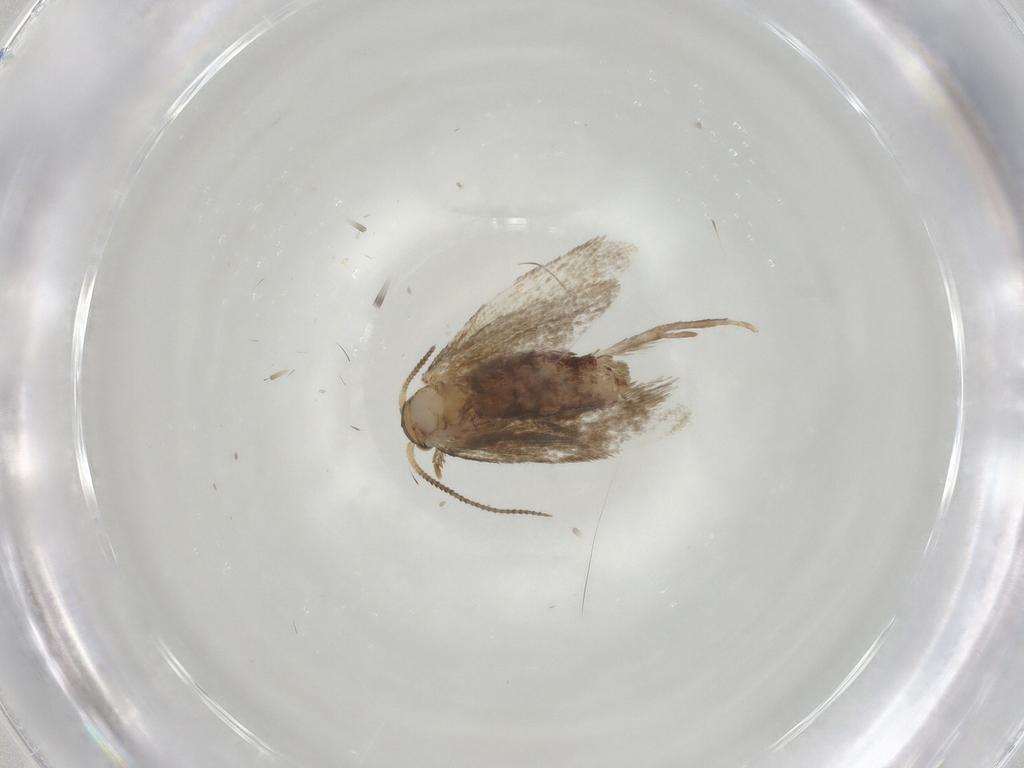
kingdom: Animalia
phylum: Arthropoda
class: Insecta
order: Lepidoptera
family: Dryadaulidae
